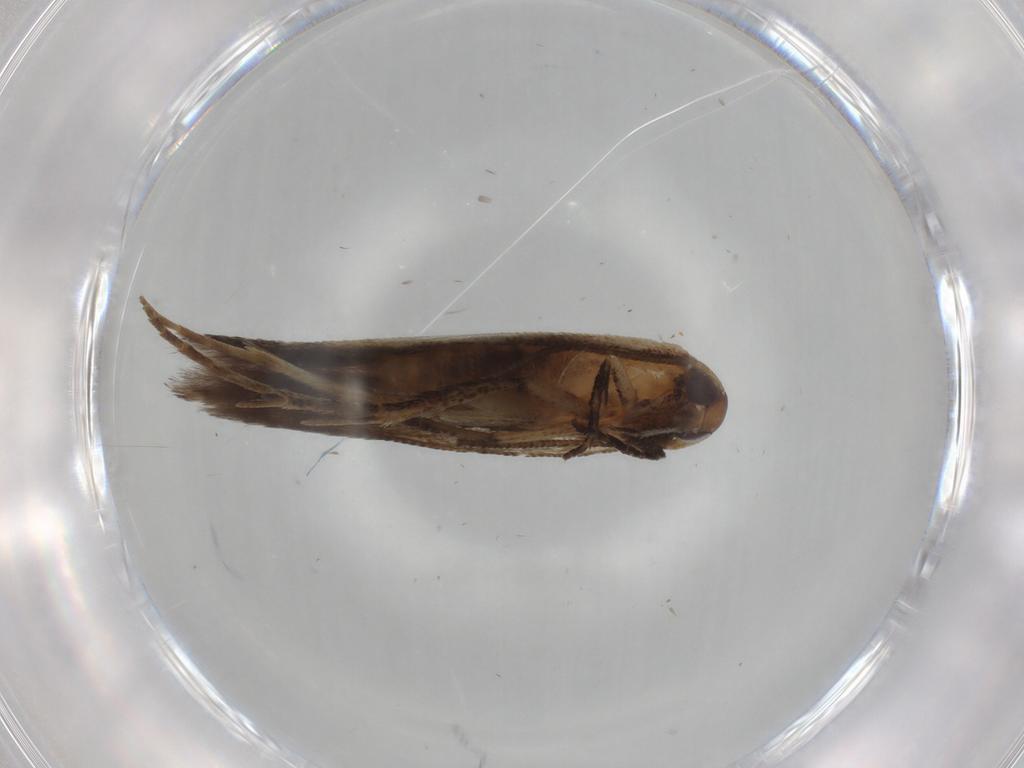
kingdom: Animalia
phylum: Arthropoda
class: Insecta
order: Lepidoptera
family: Cosmopterigidae
